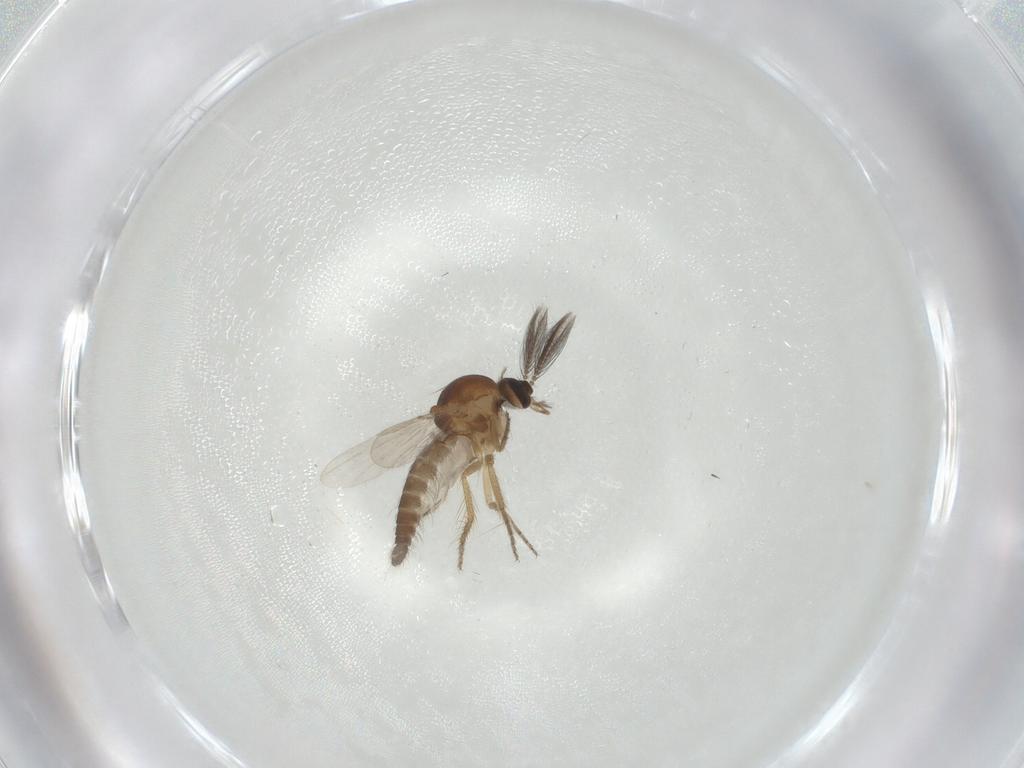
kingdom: Animalia
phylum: Arthropoda
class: Insecta
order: Diptera
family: Ceratopogonidae
